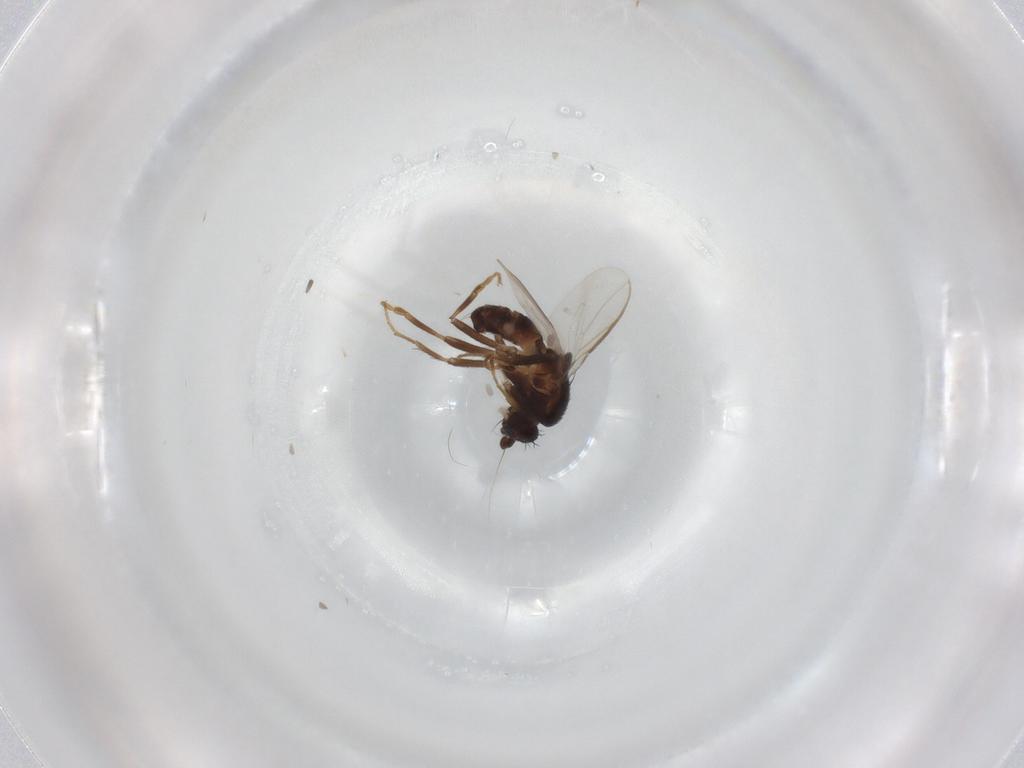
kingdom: Animalia
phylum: Arthropoda
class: Insecta
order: Diptera
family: Sphaeroceridae
